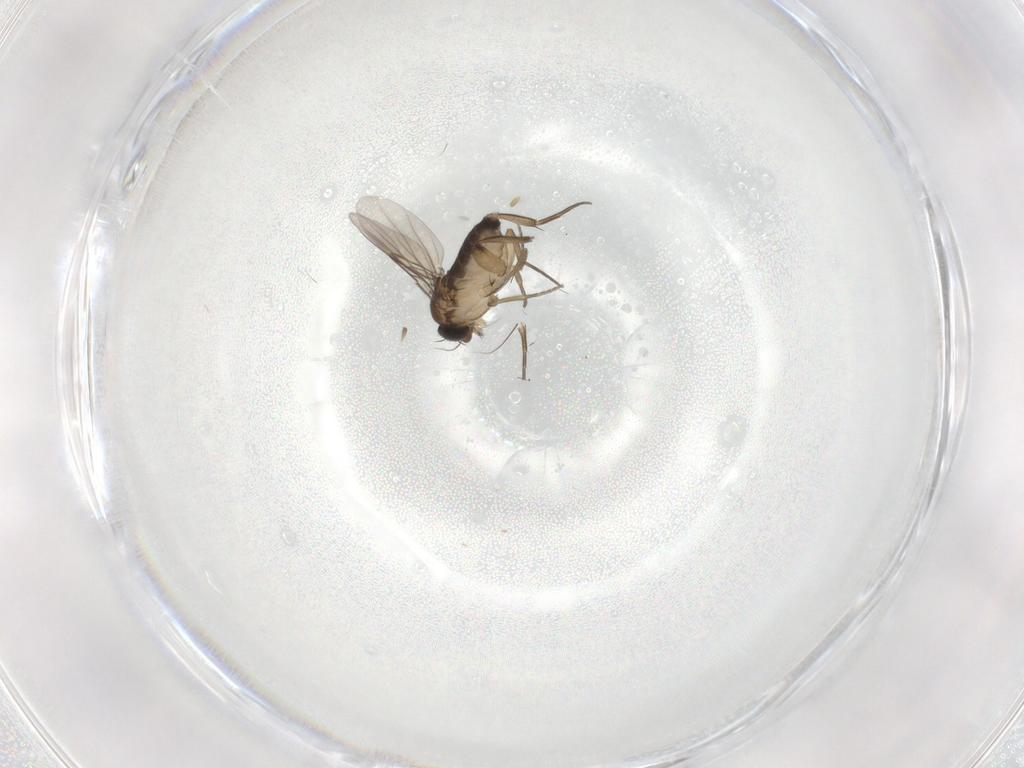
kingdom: Animalia
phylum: Arthropoda
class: Insecta
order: Diptera
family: Phoridae
